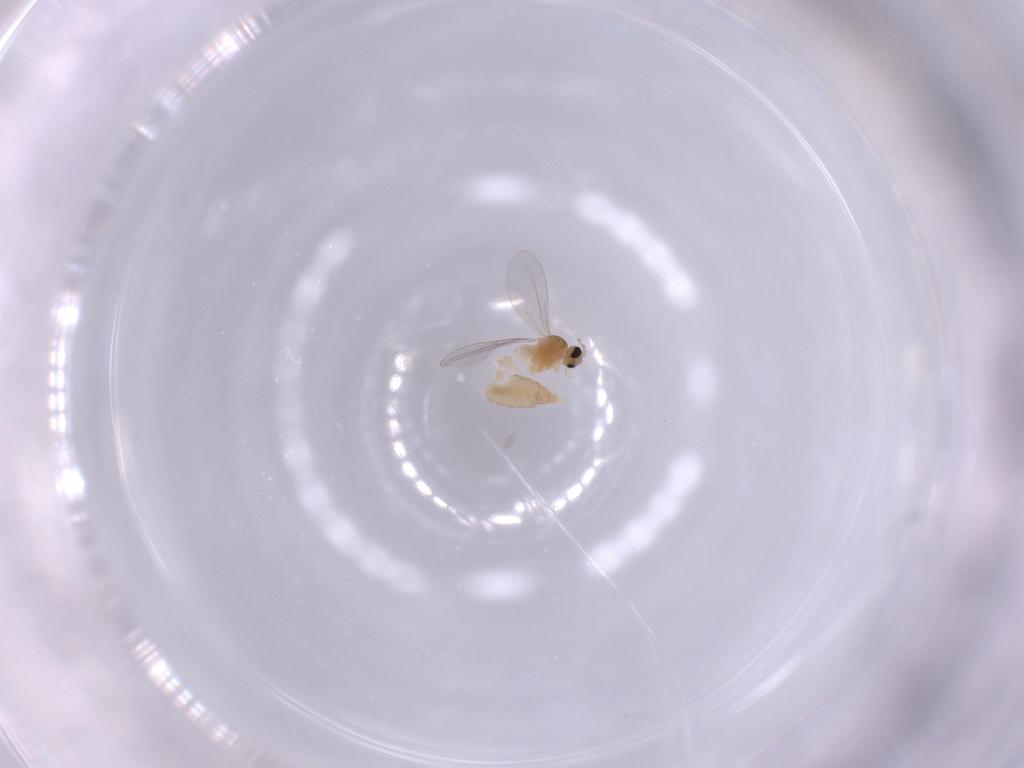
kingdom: Animalia
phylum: Arthropoda
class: Insecta
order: Diptera
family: Cecidomyiidae
